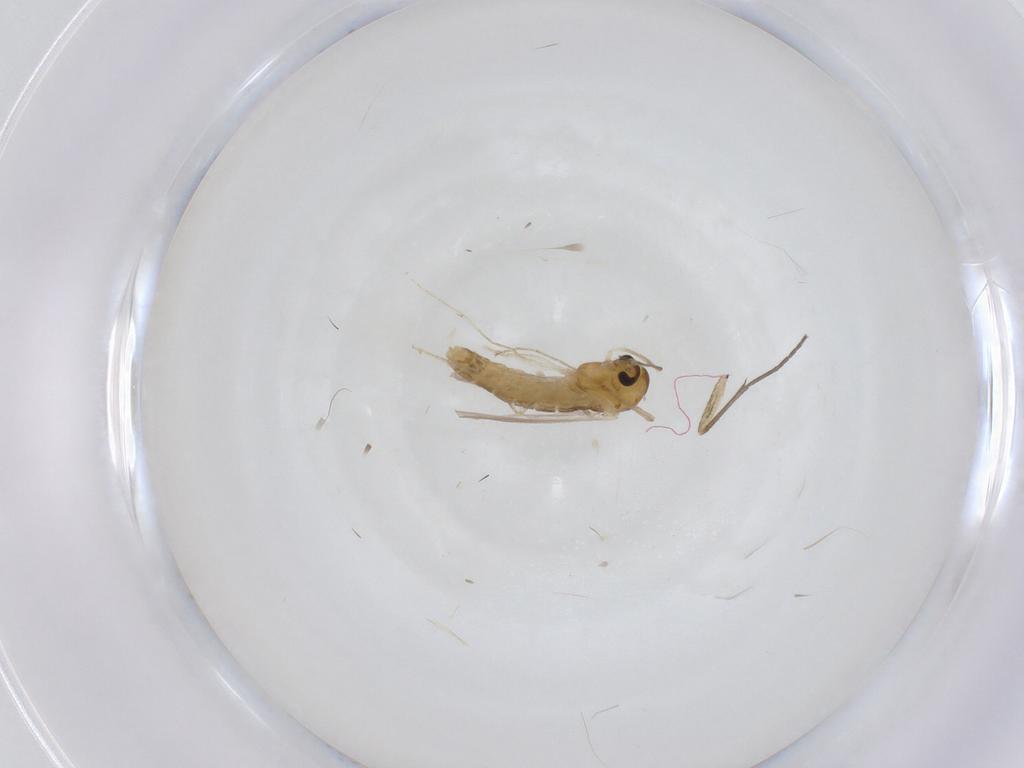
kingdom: Animalia
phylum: Arthropoda
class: Insecta
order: Diptera
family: Chironomidae
